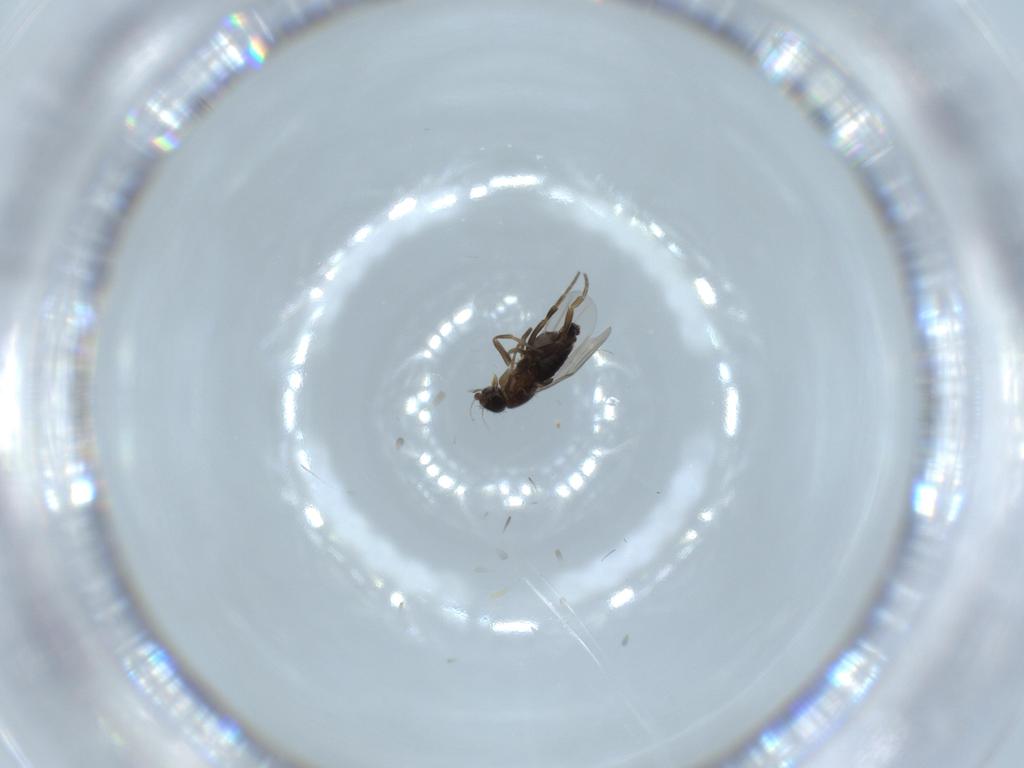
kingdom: Animalia
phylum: Arthropoda
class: Insecta
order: Diptera
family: Phoridae
